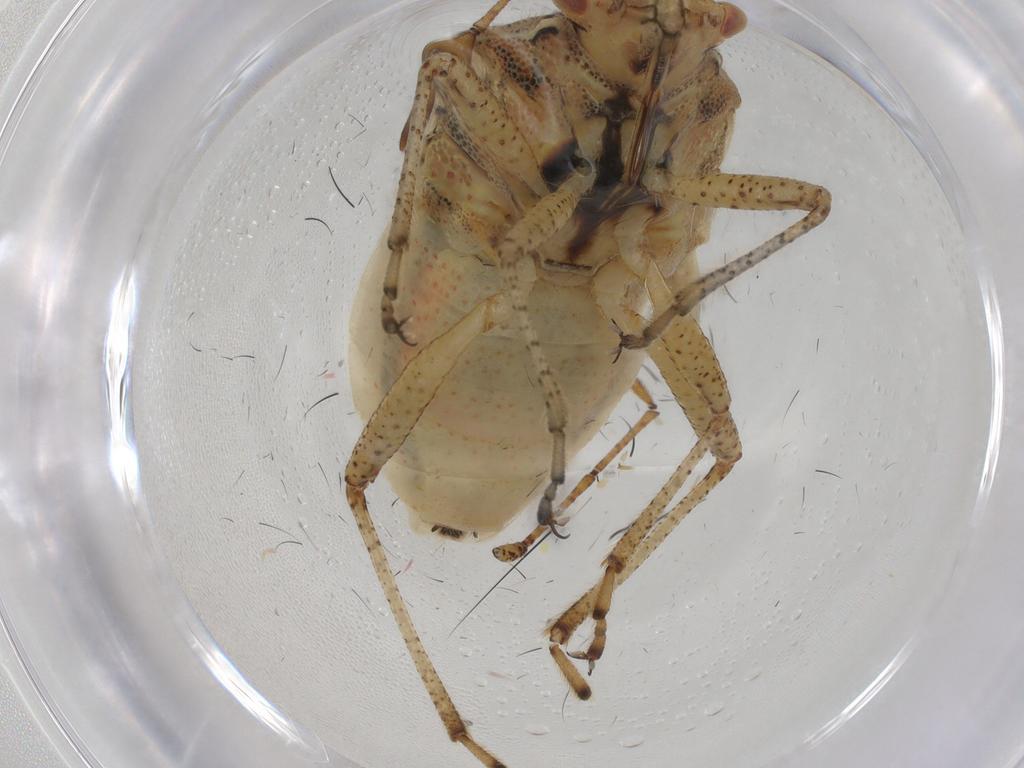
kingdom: Animalia
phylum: Arthropoda
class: Insecta
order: Hemiptera
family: Rhopalidae
